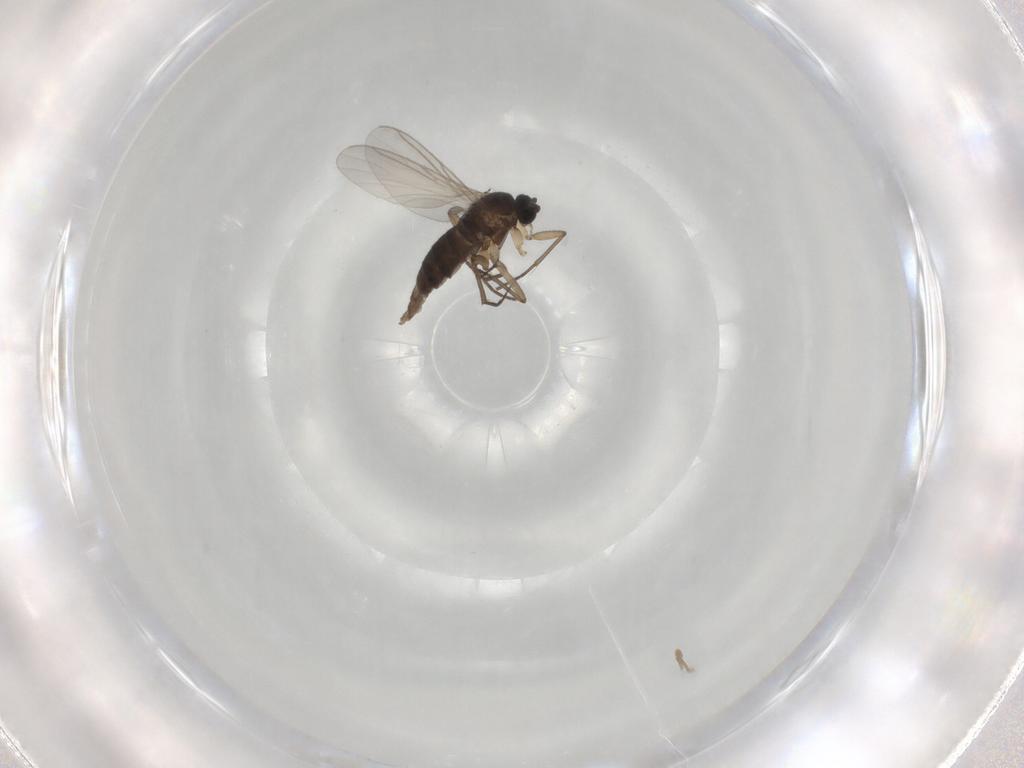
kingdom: Animalia
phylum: Arthropoda
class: Insecta
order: Diptera
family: Sciaridae
